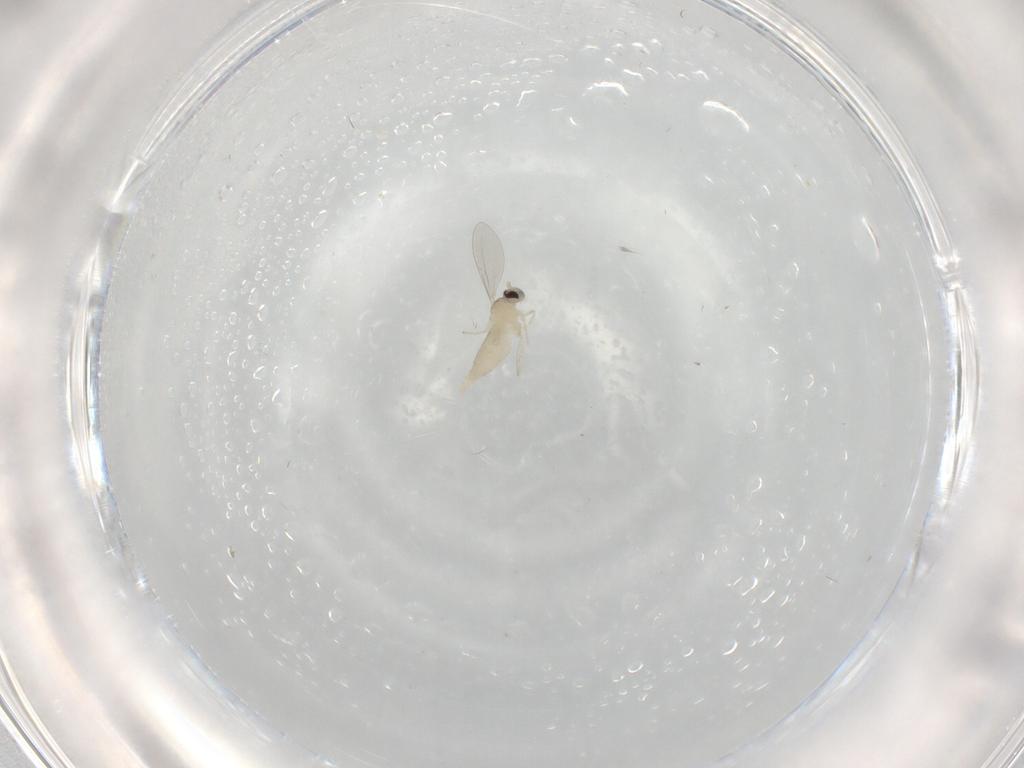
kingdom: Animalia
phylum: Arthropoda
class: Insecta
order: Diptera
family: Cecidomyiidae
